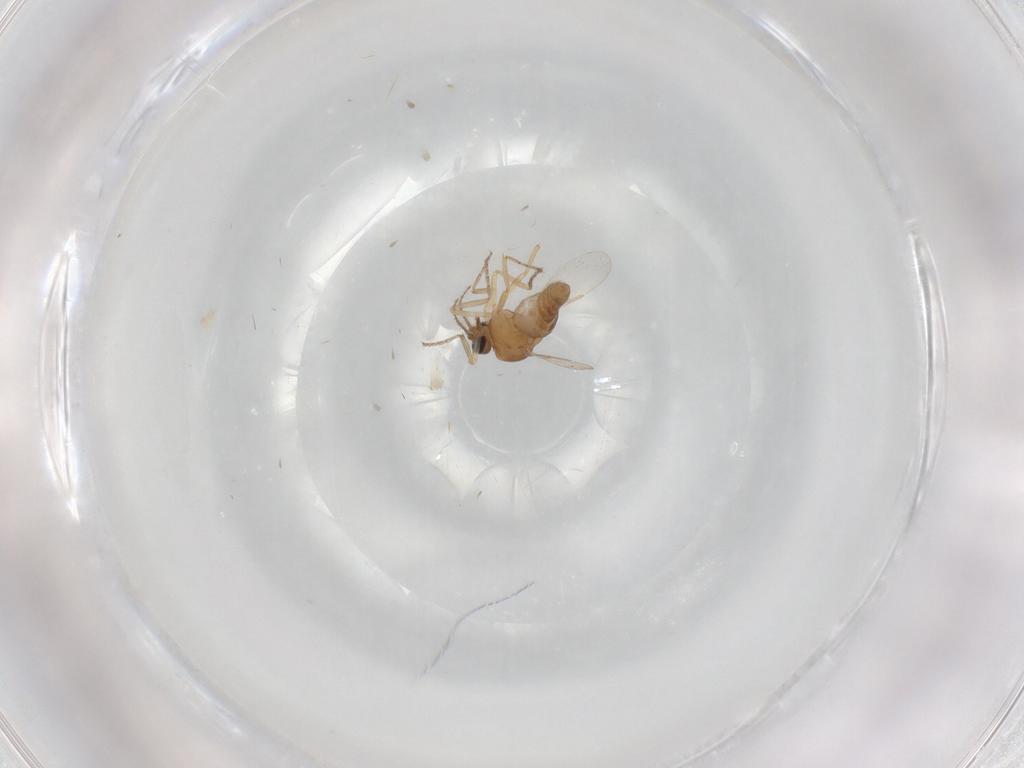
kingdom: Animalia
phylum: Arthropoda
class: Insecta
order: Diptera
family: Ceratopogonidae
